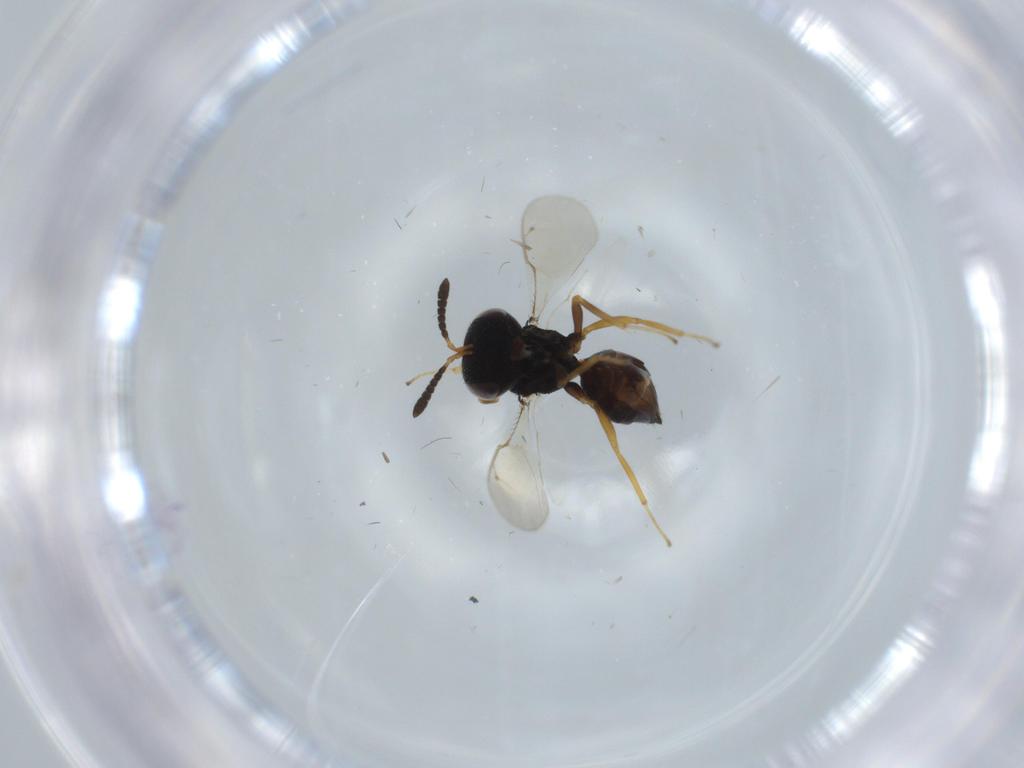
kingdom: Animalia
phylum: Arthropoda
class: Insecta
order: Hymenoptera
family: Pteromalidae
